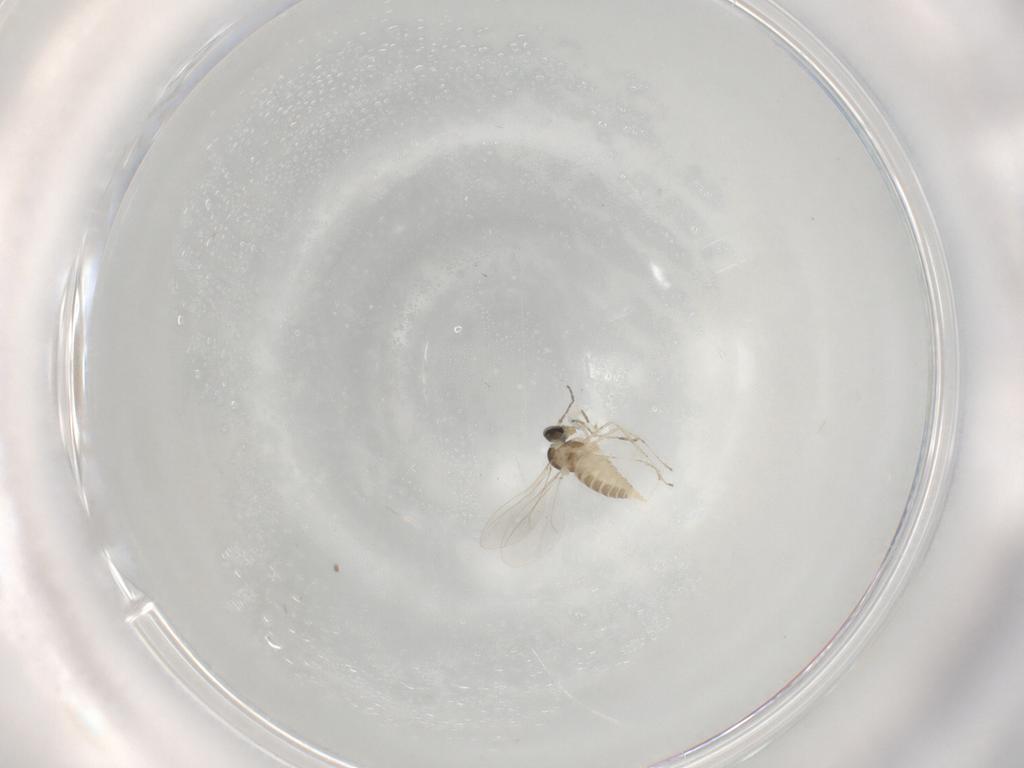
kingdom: Animalia
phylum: Arthropoda
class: Insecta
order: Diptera
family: Cecidomyiidae
